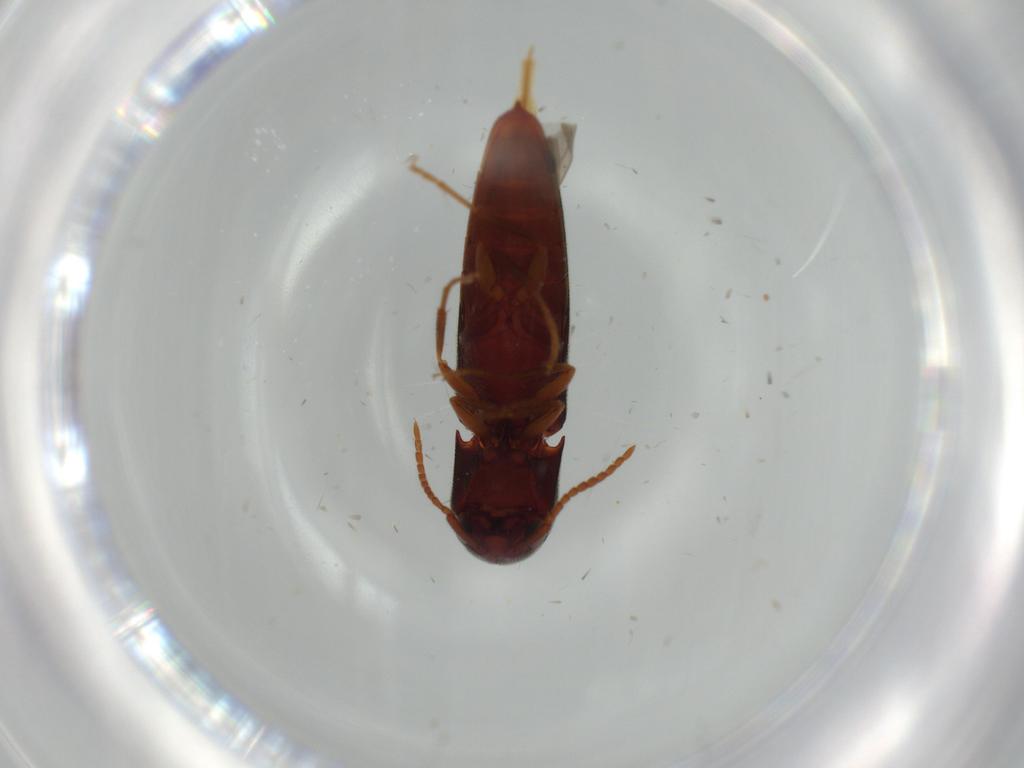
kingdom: Animalia
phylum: Arthropoda
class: Insecta
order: Coleoptera
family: Eucnemidae
